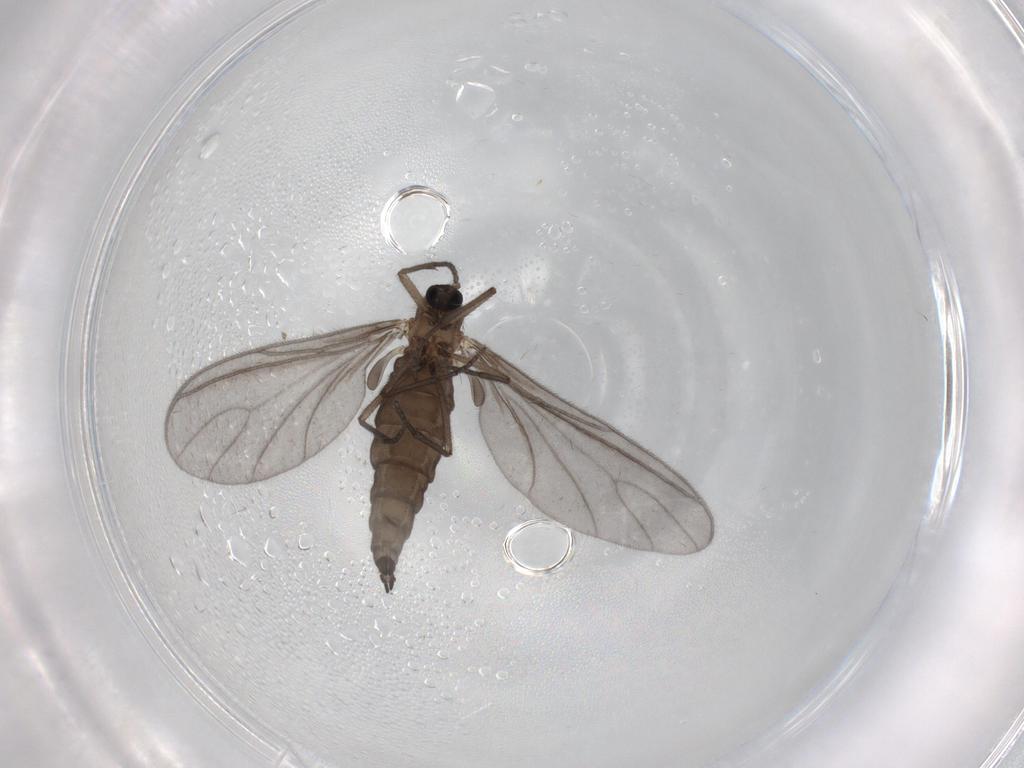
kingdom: Animalia
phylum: Arthropoda
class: Insecta
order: Diptera
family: Sciaridae
